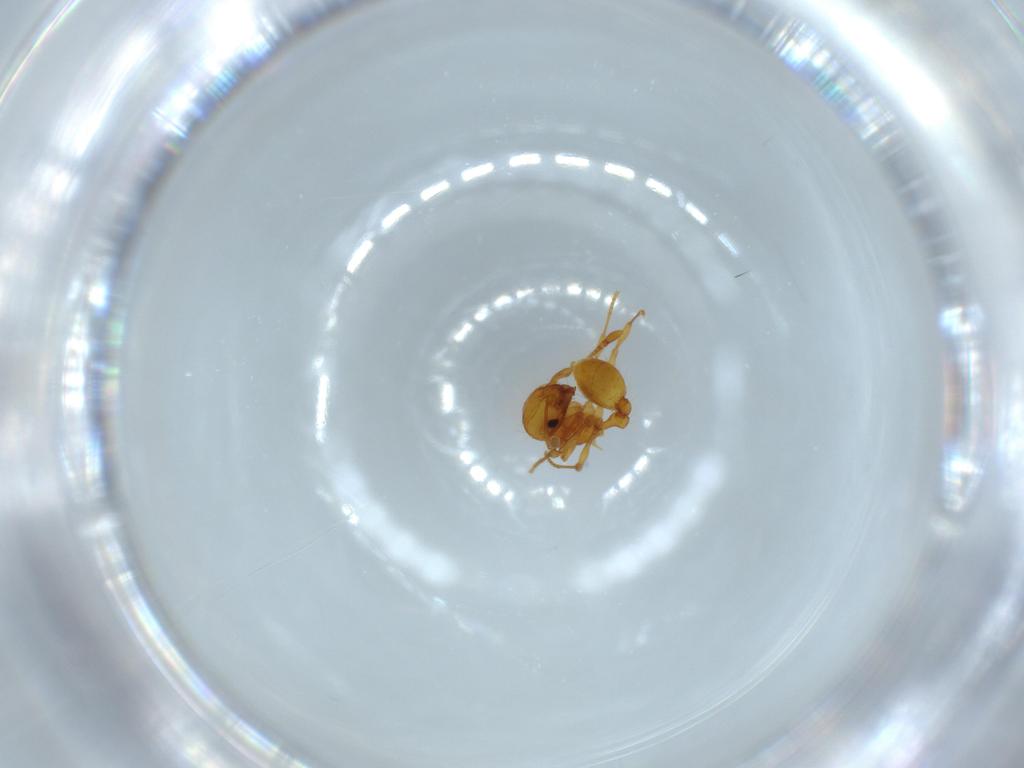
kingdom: Animalia
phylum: Arthropoda
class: Insecta
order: Hymenoptera
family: Formicidae
